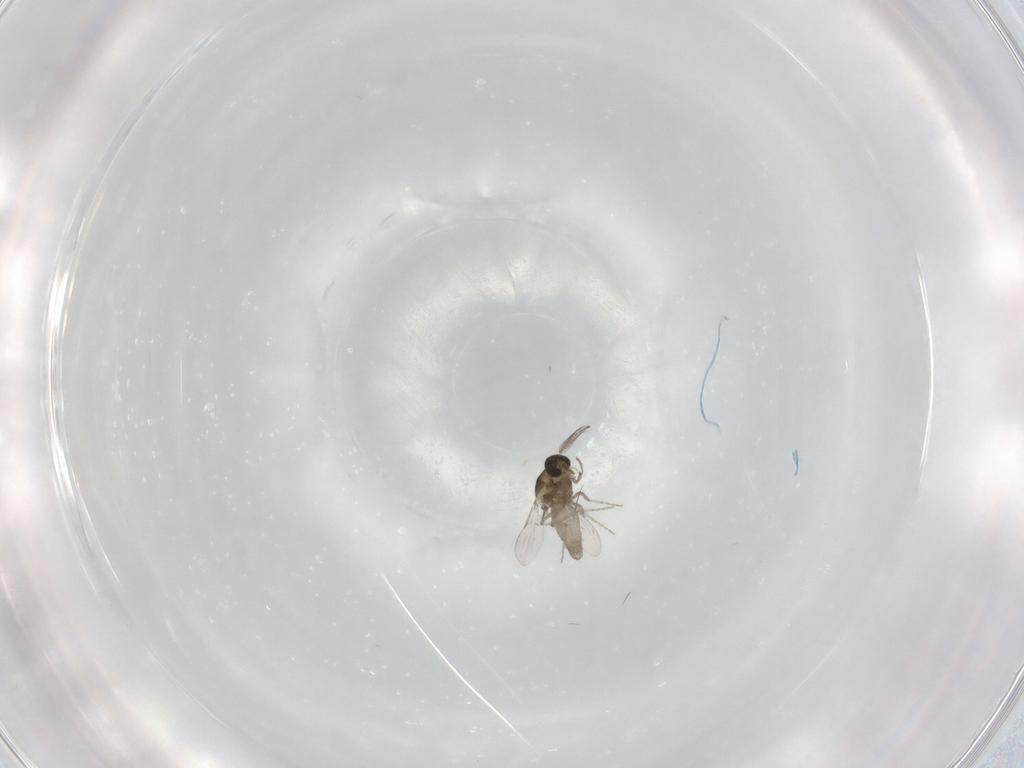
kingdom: Animalia
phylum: Arthropoda
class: Insecta
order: Diptera
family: Ceratopogonidae
